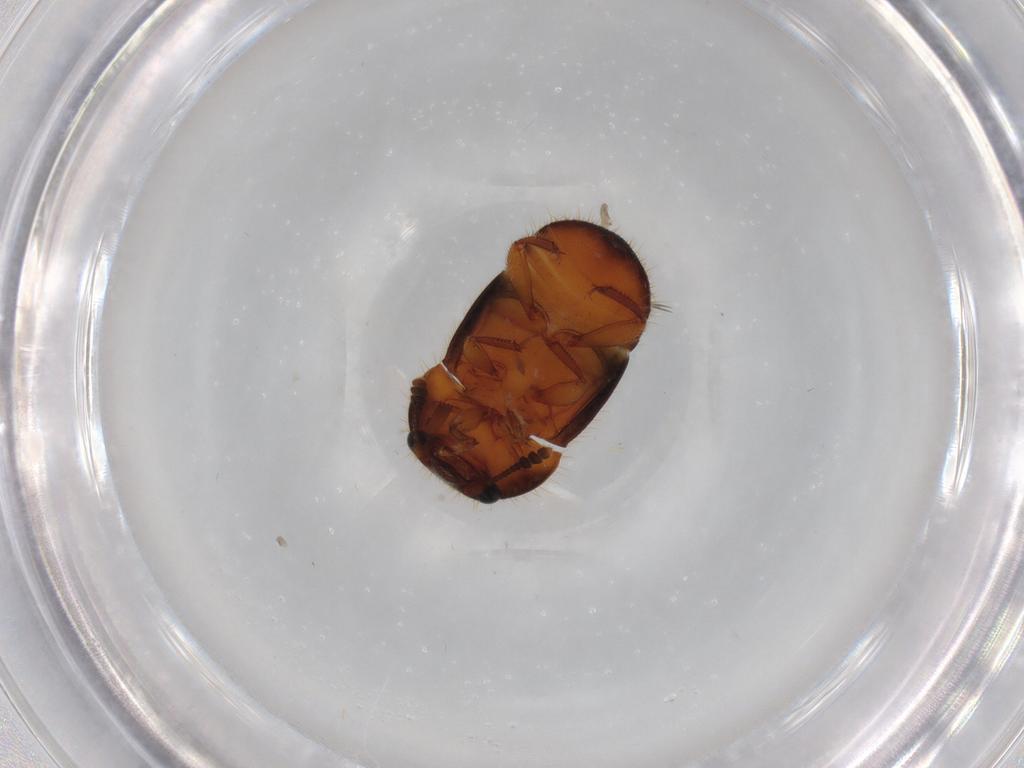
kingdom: Animalia
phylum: Arthropoda
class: Insecta
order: Coleoptera
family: Nitidulidae
